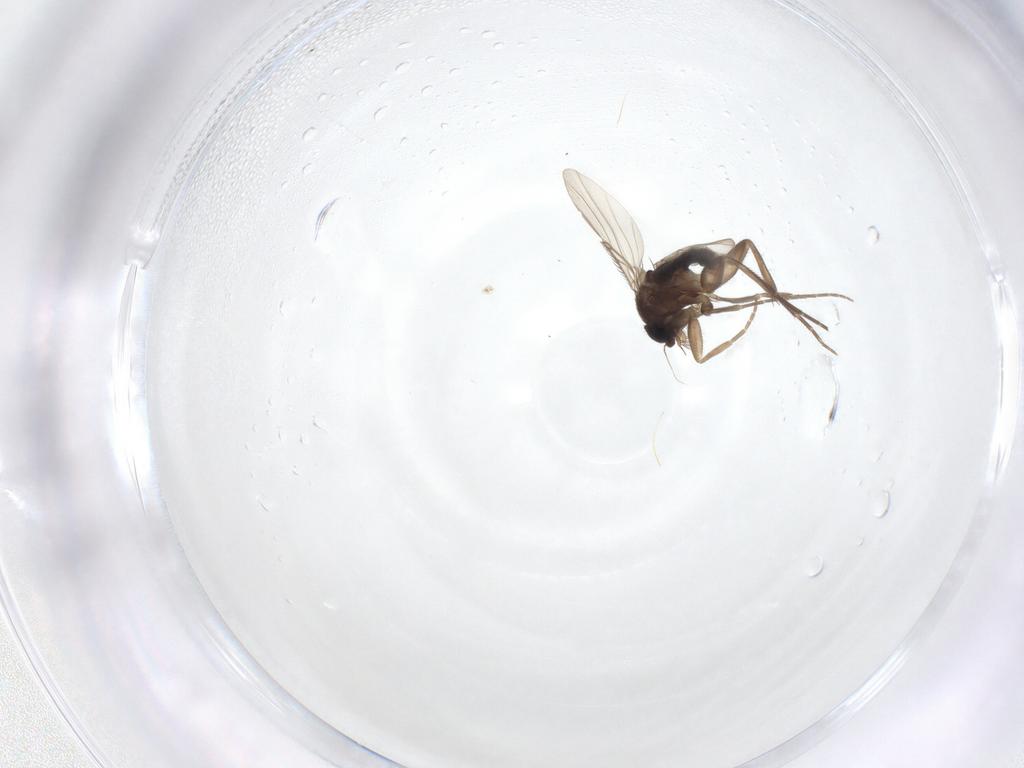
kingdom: Animalia
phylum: Arthropoda
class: Insecta
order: Diptera
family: Phoridae
